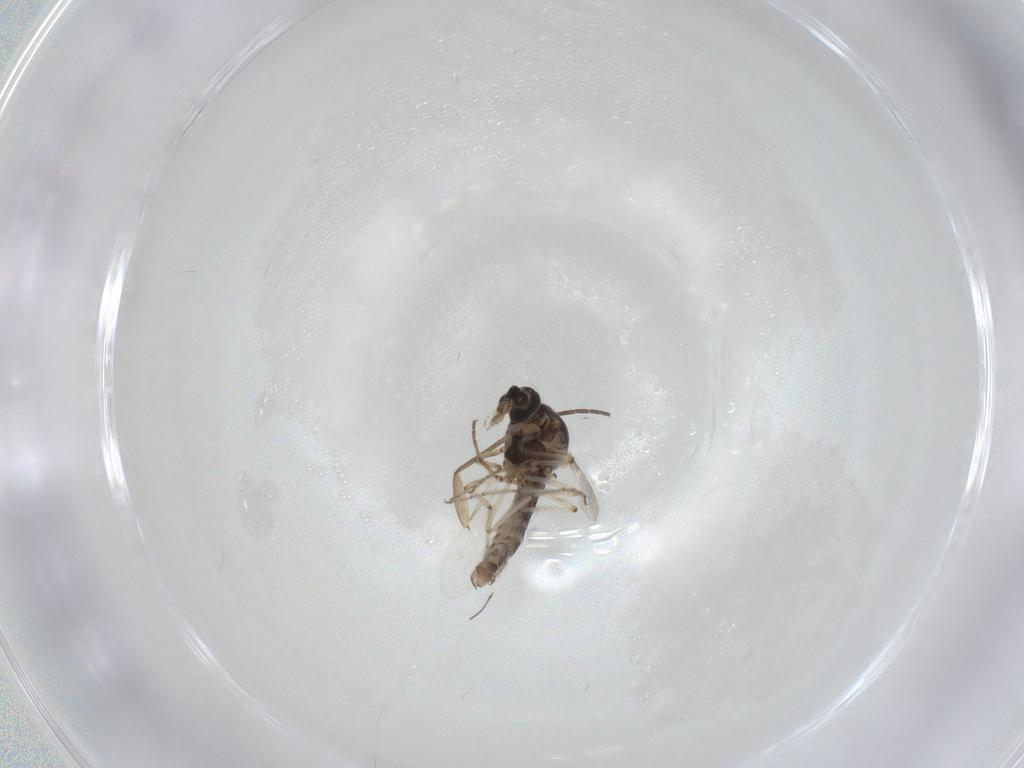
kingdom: Animalia
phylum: Arthropoda
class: Insecta
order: Diptera
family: Ceratopogonidae
